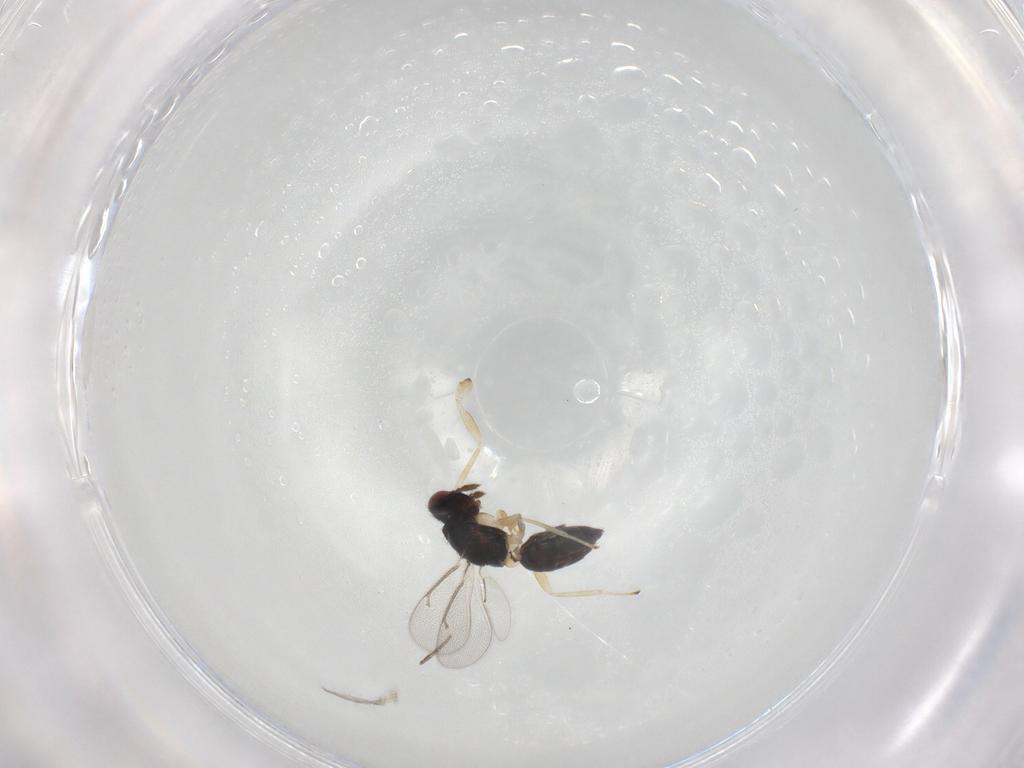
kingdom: Animalia
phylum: Arthropoda
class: Insecta
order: Hymenoptera
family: Eulophidae
